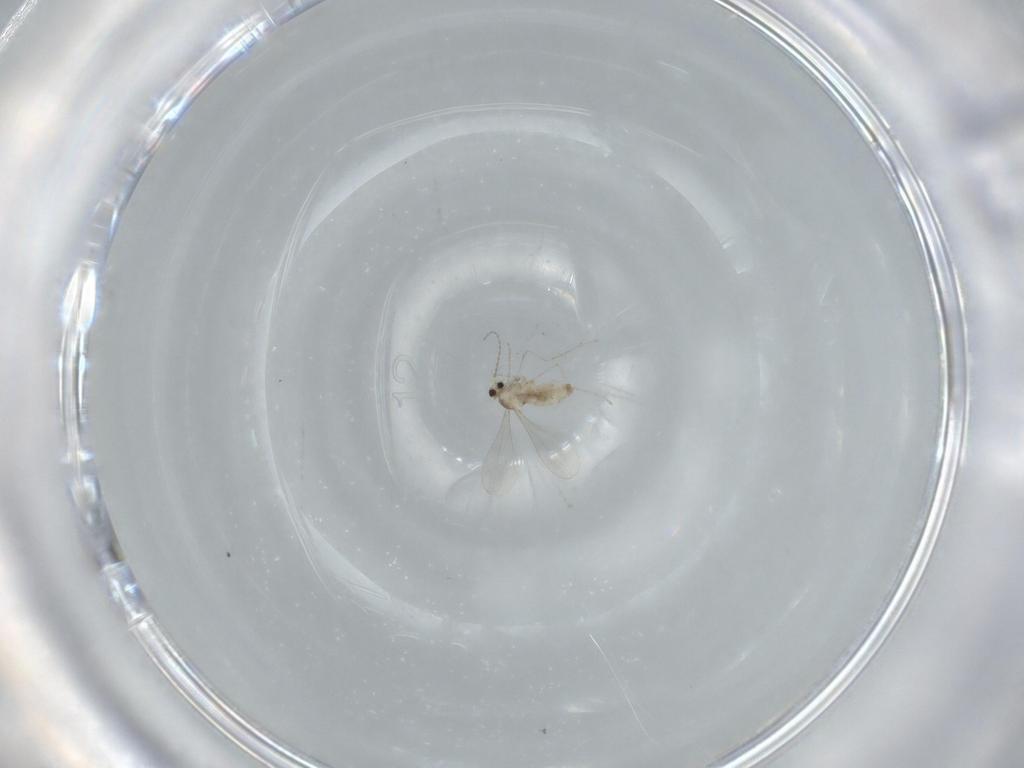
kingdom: Animalia
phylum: Arthropoda
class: Insecta
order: Diptera
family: Cecidomyiidae
